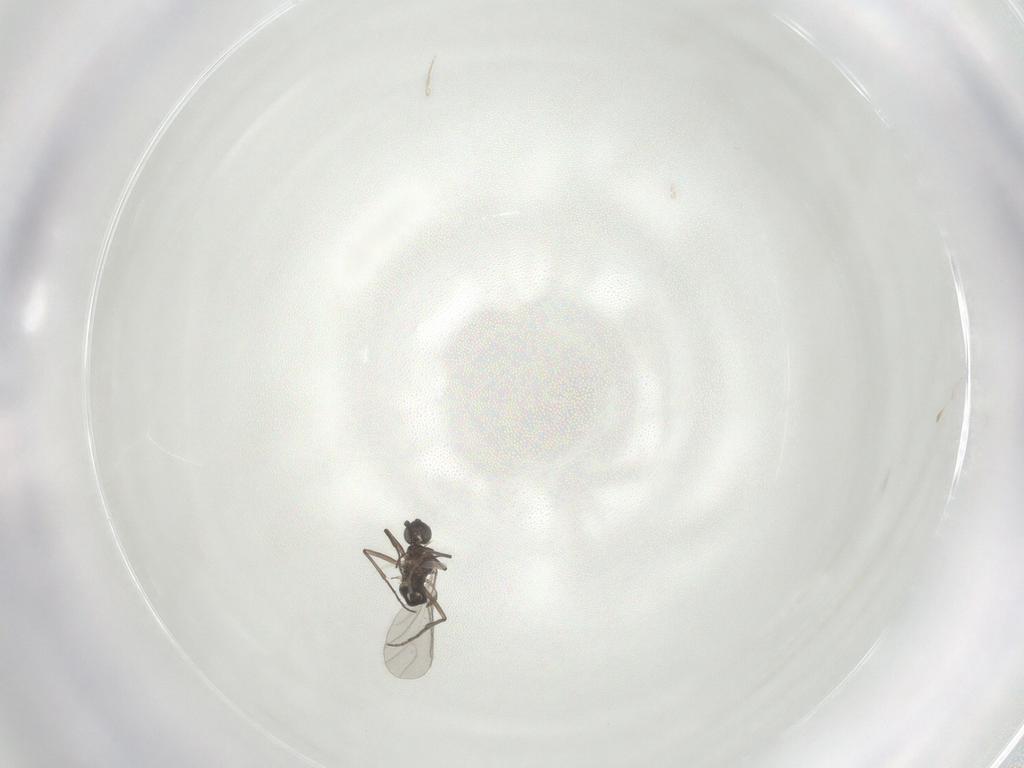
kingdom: Animalia
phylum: Arthropoda
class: Insecta
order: Diptera
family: Sciaridae
